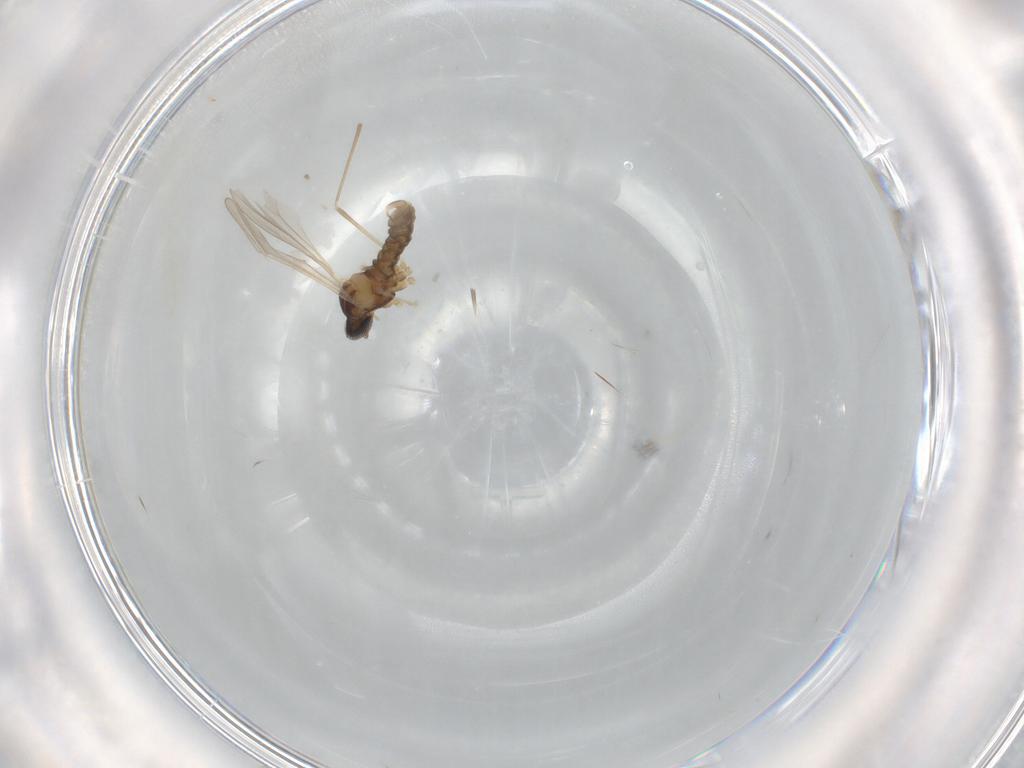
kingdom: Animalia
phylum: Arthropoda
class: Insecta
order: Diptera
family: Cecidomyiidae
